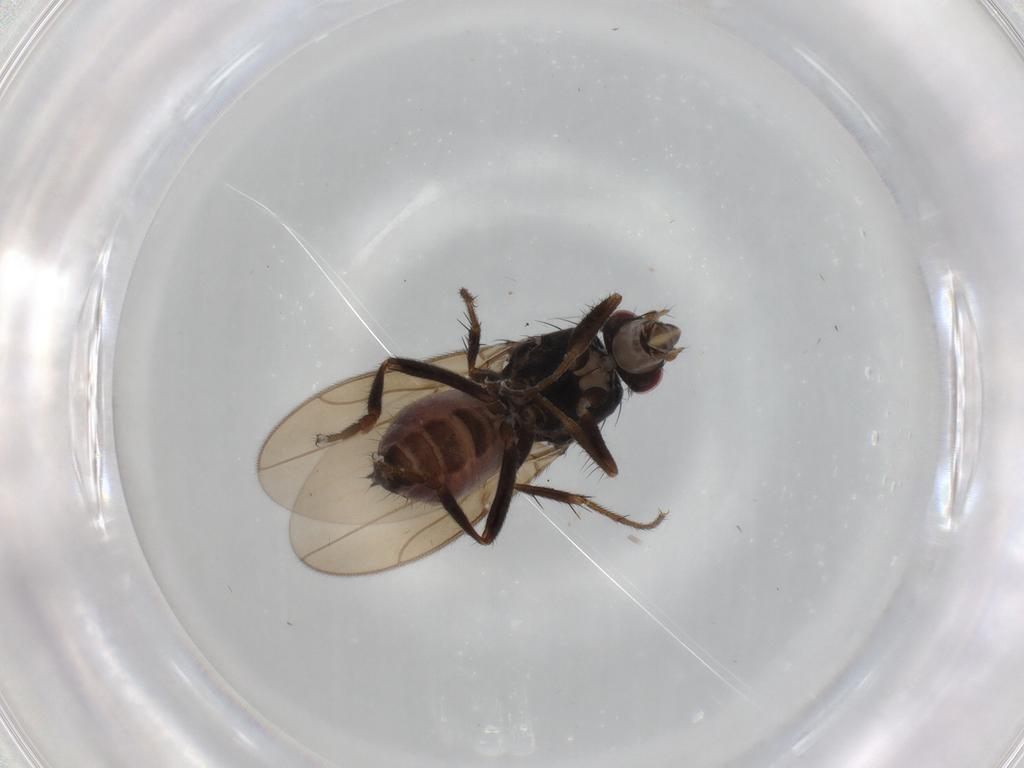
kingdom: Animalia
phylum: Arthropoda
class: Insecta
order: Diptera
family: Sphaeroceridae
